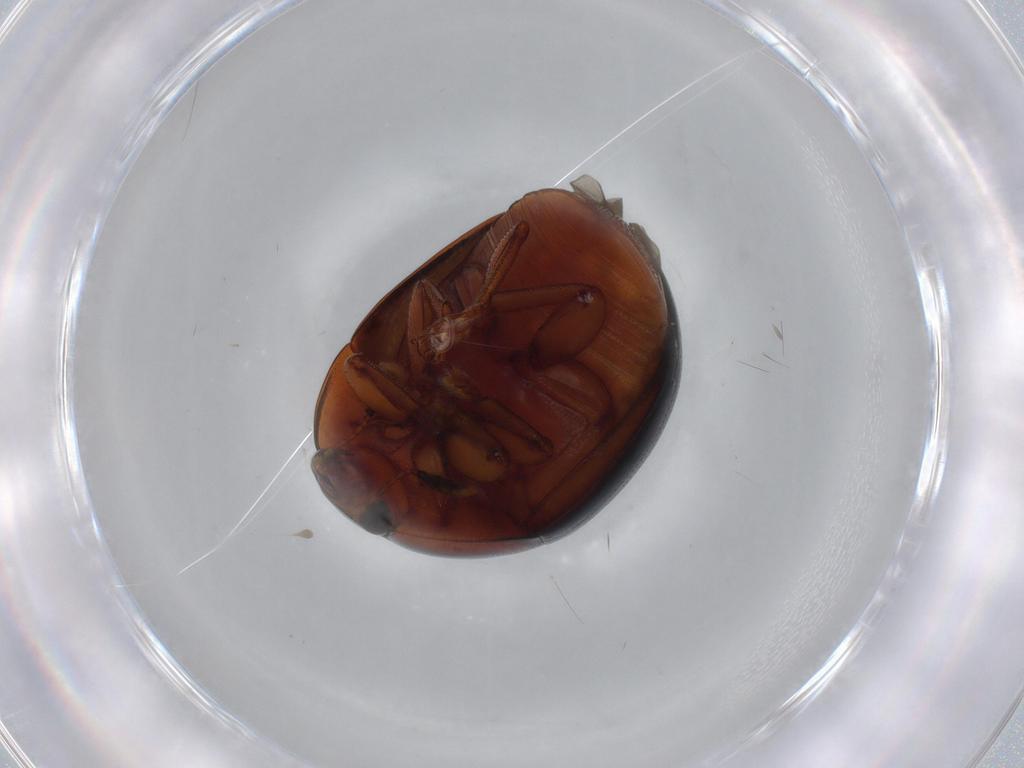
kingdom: Animalia
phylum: Arthropoda
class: Insecta
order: Coleoptera
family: Nitidulidae
